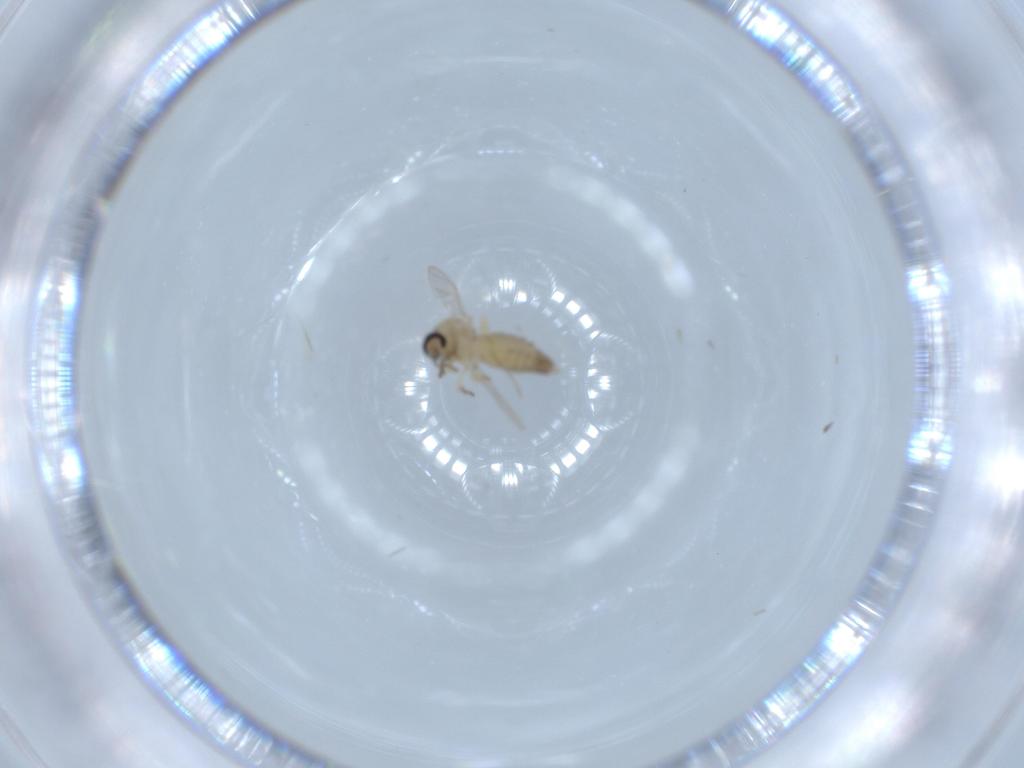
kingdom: Animalia
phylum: Arthropoda
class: Insecta
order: Diptera
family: Ceratopogonidae
